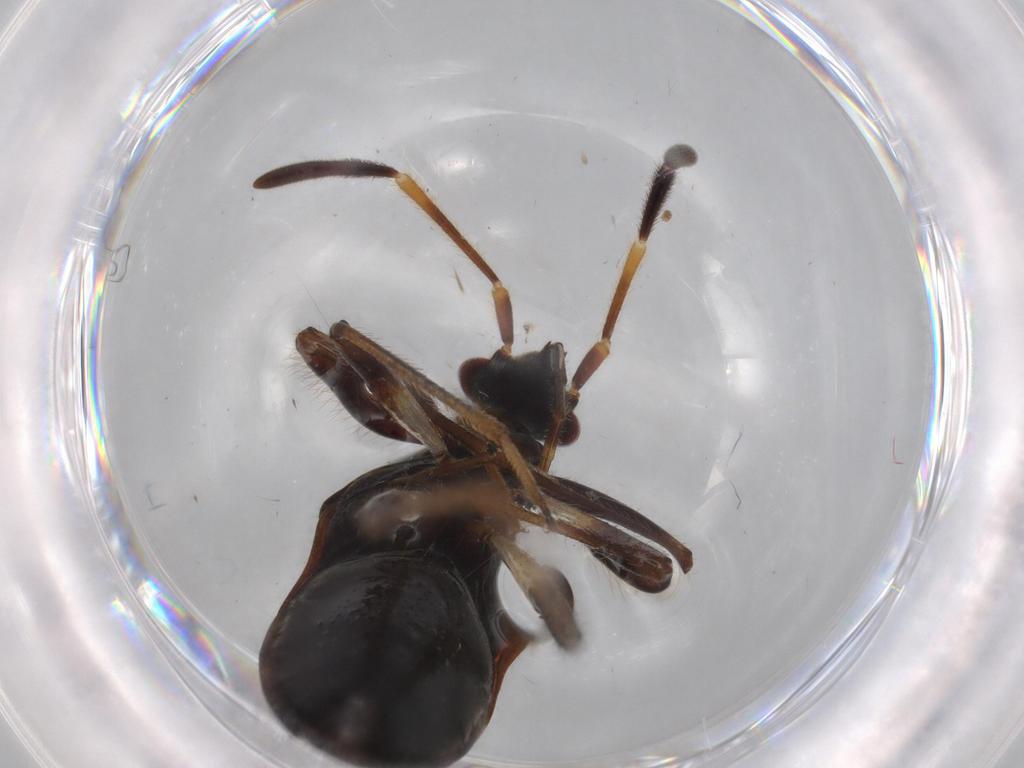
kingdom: Animalia
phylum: Arthropoda
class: Insecta
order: Hemiptera
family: Rhyparochromidae
